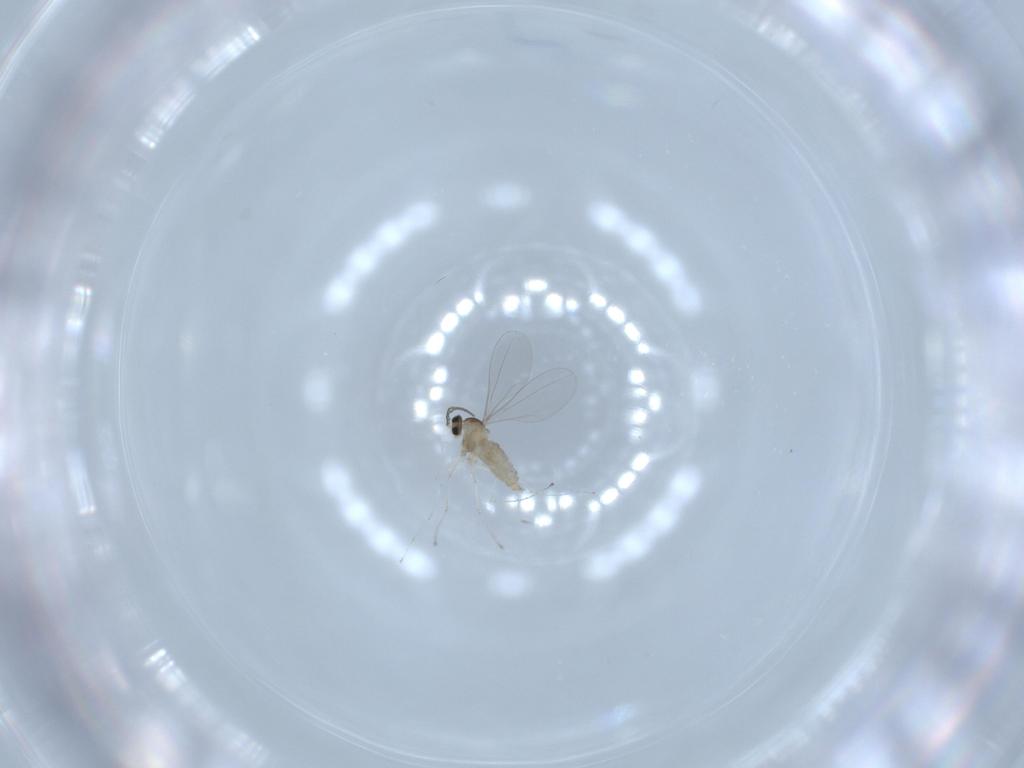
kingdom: Animalia
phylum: Arthropoda
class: Insecta
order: Diptera
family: Cecidomyiidae
